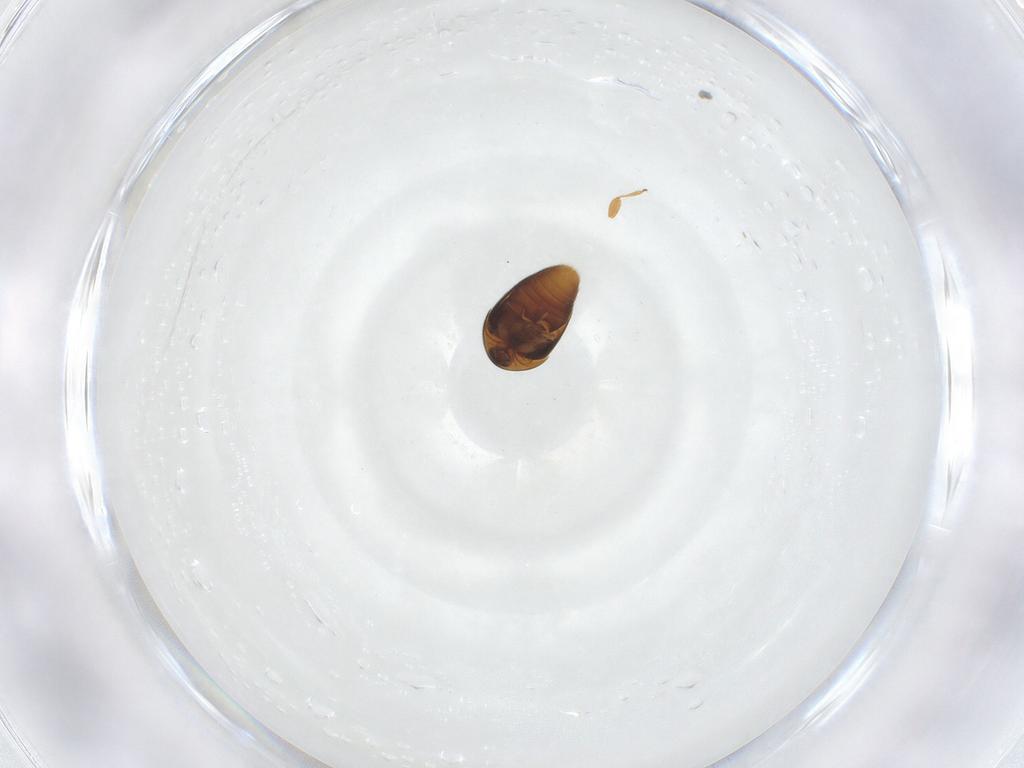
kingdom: Animalia
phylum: Arthropoda
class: Insecta
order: Coleoptera
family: Corylophidae
